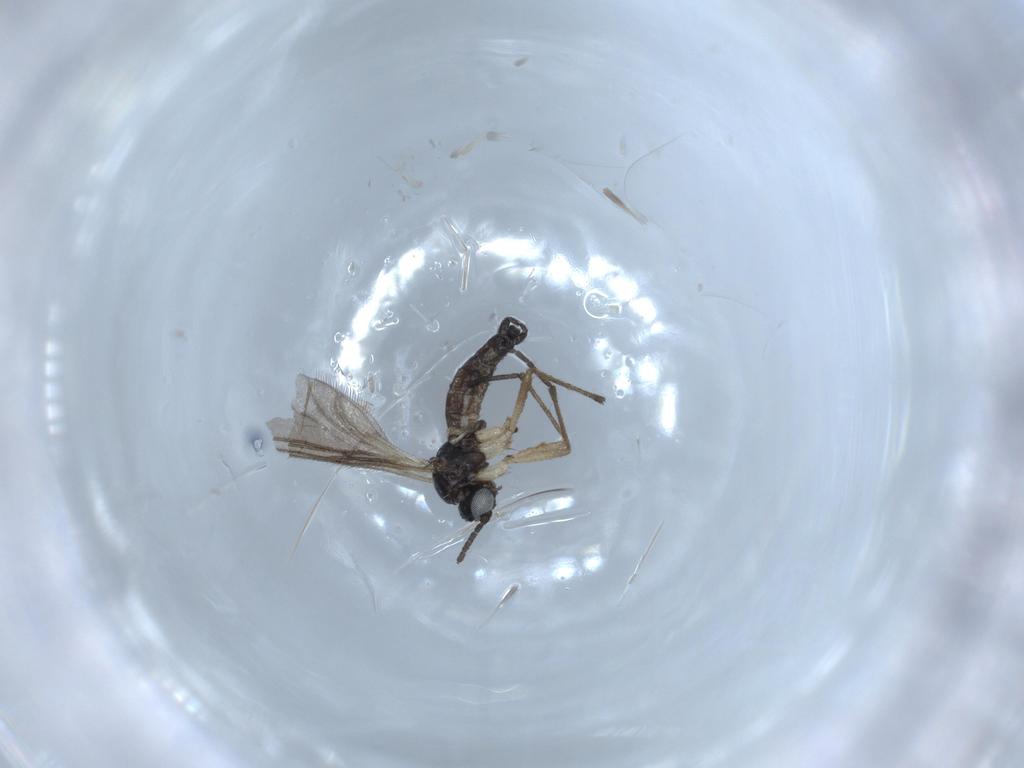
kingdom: Animalia
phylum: Arthropoda
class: Insecta
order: Diptera
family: Sciaridae
